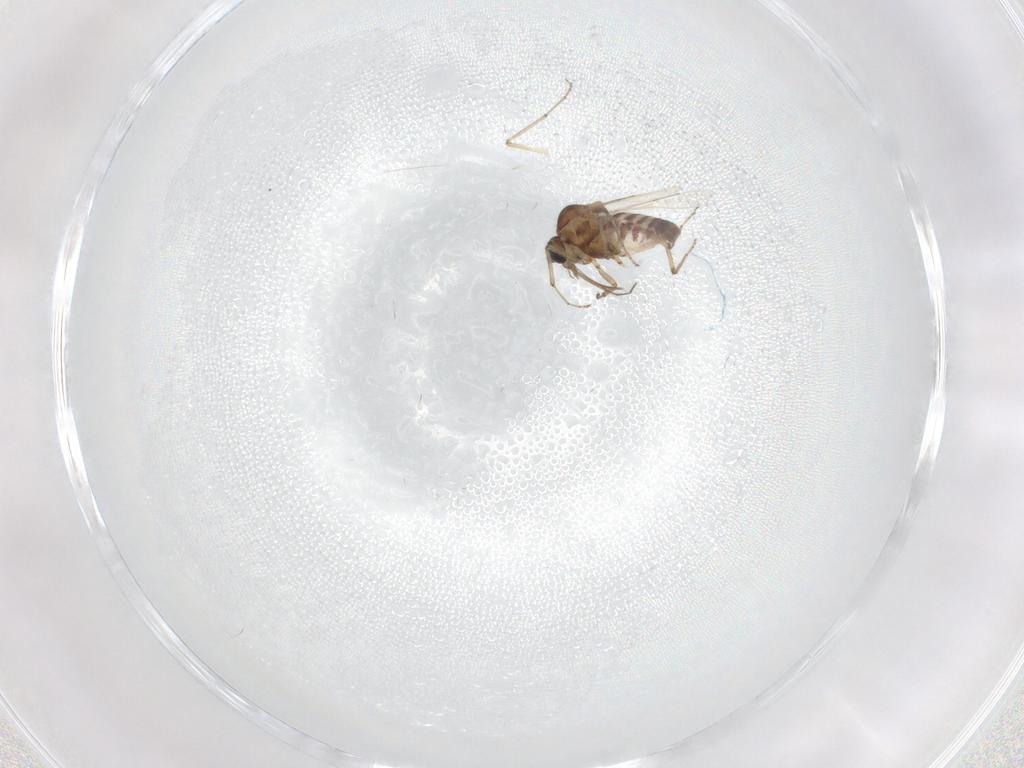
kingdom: Animalia
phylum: Arthropoda
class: Insecta
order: Diptera
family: Ceratopogonidae
